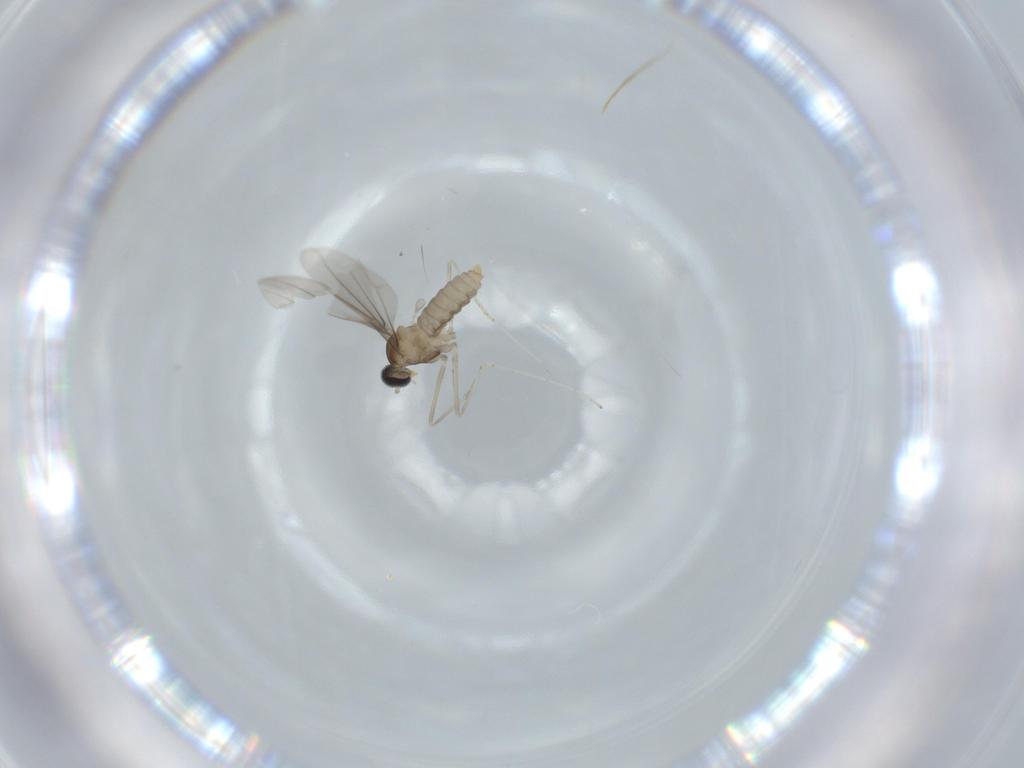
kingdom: Animalia
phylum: Arthropoda
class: Insecta
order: Diptera
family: Cecidomyiidae
